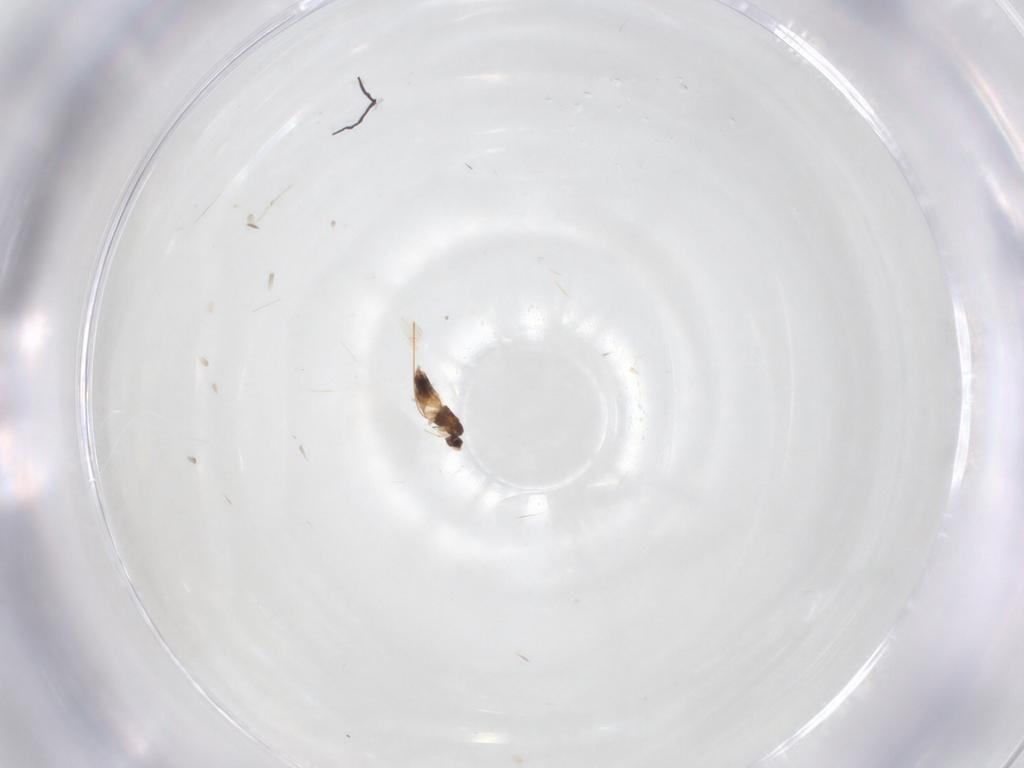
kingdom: Animalia
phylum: Arthropoda
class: Insecta
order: Hymenoptera
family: Mymaridae
